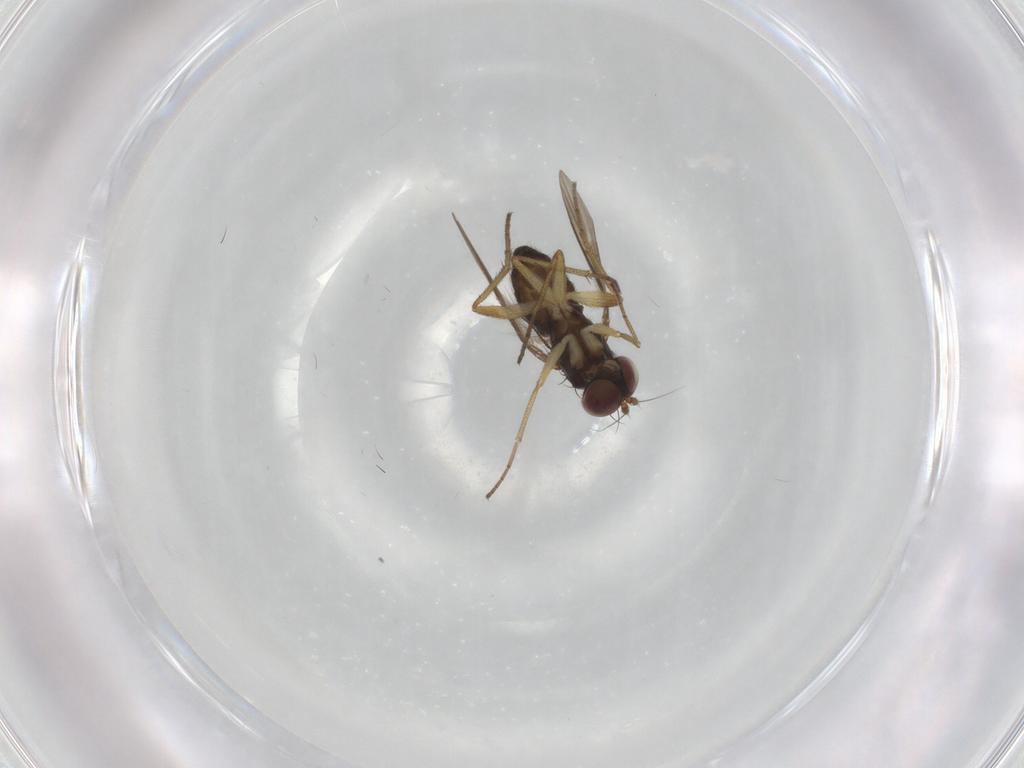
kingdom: Animalia
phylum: Arthropoda
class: Insecta
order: Diptera
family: Dolichopodidae
